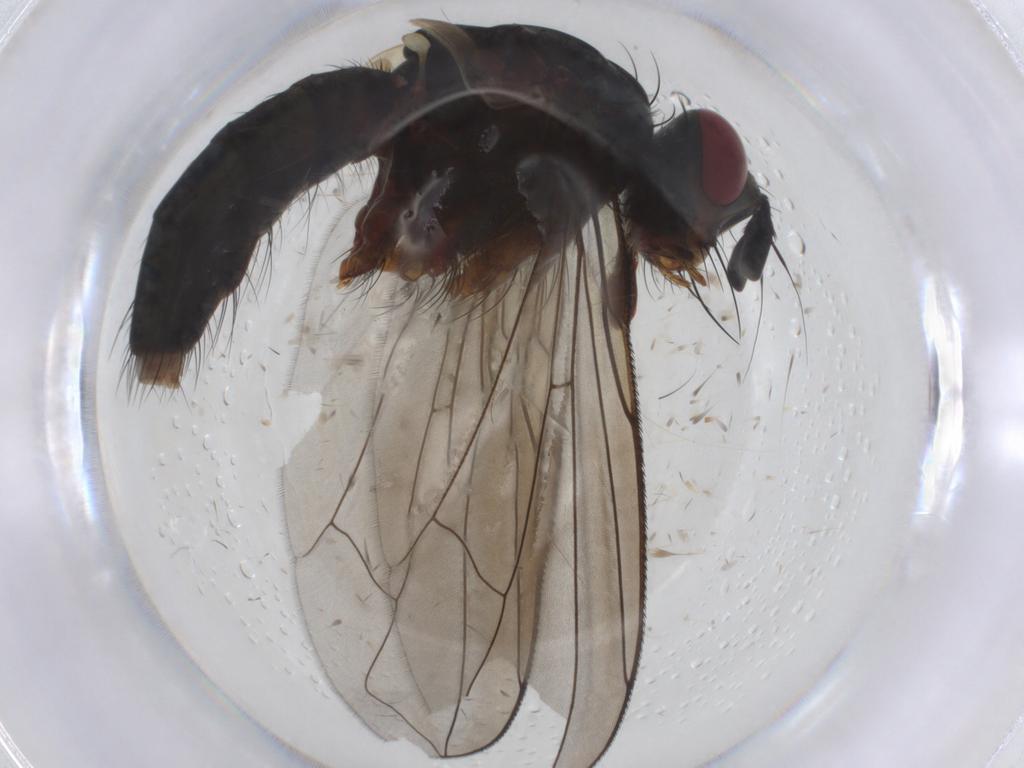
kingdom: Animalia
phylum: Arthropoda
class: Insecta
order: Diptera
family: Tachinidae
